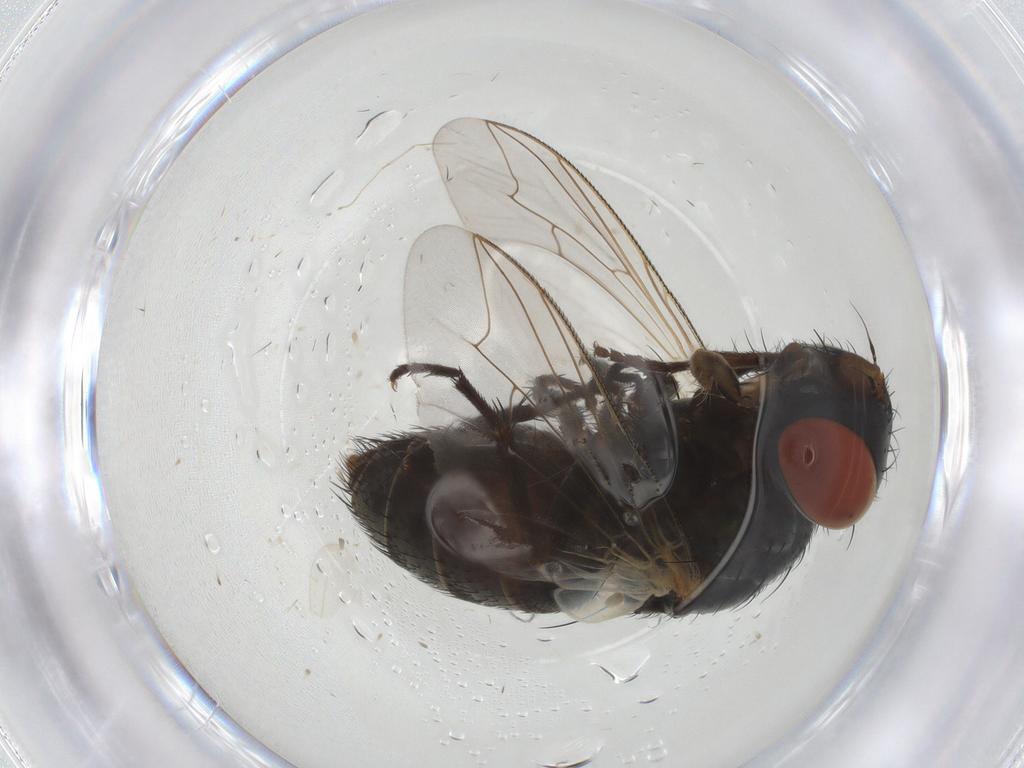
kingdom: Animalia
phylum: Arthropoda
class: Insecta
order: Diptera
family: Sarcophagidae
